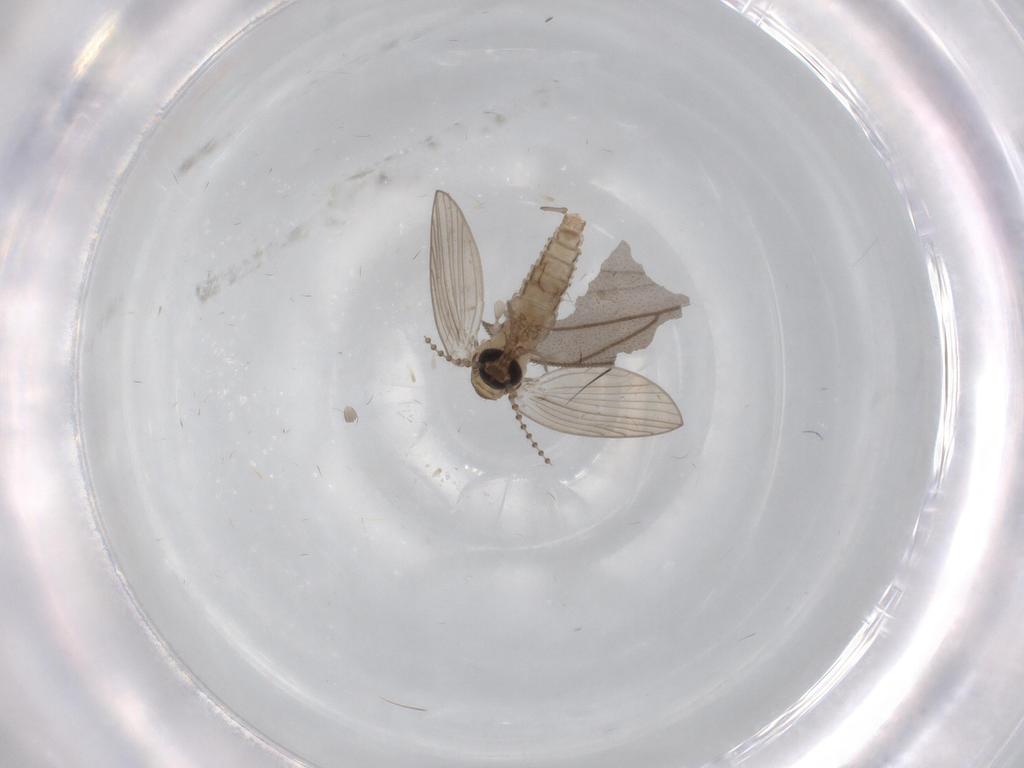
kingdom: Animalia
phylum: Arthropoda
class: Insecta
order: Diptera
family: Psychodidae
